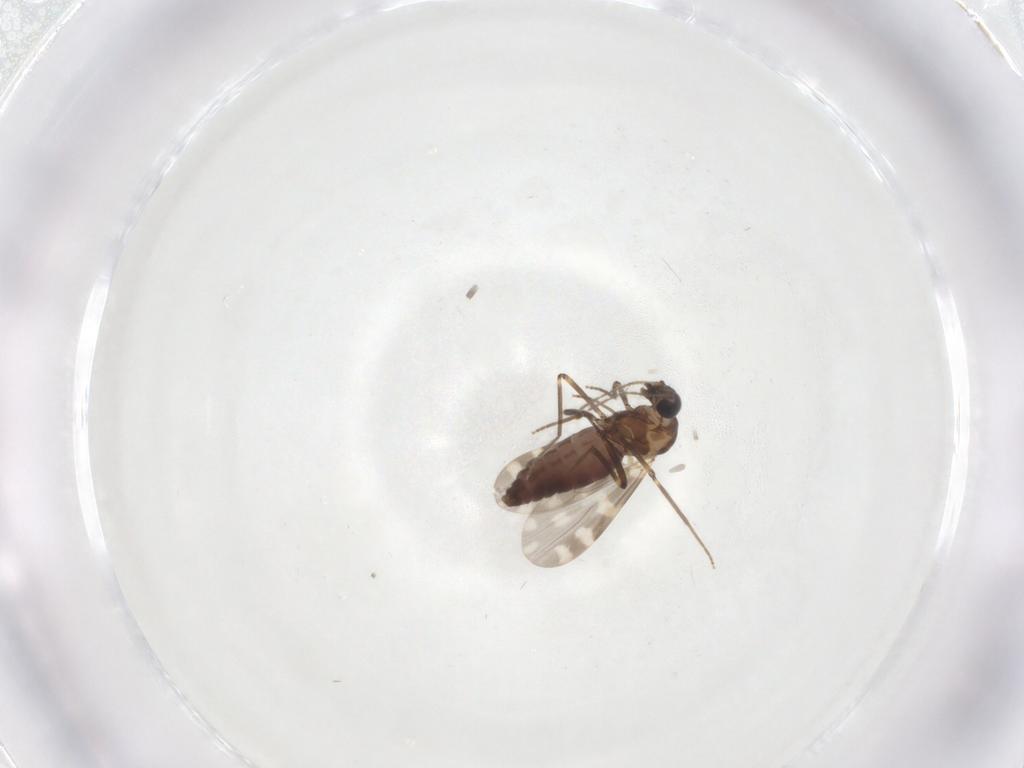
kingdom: Animalia
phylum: Arthropoda
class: Insecta
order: Diptera
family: Ceratopogonidae
